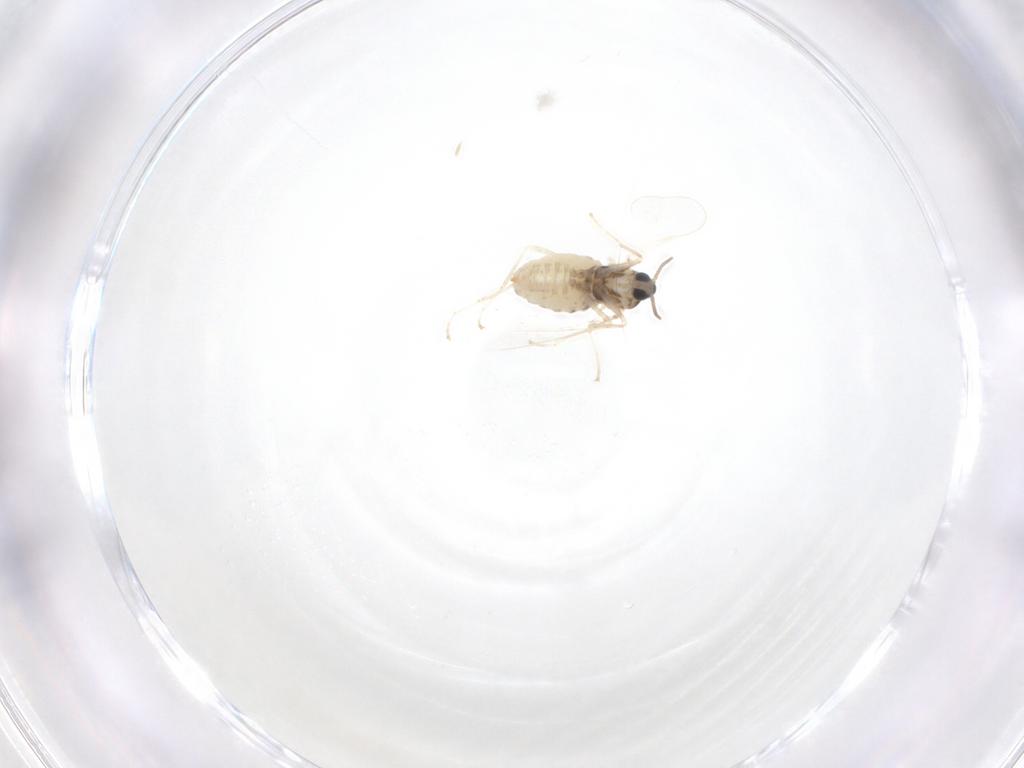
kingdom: Animalia
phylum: Arthropoda
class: Insecta
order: Diptera
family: Cecidomyiidae
